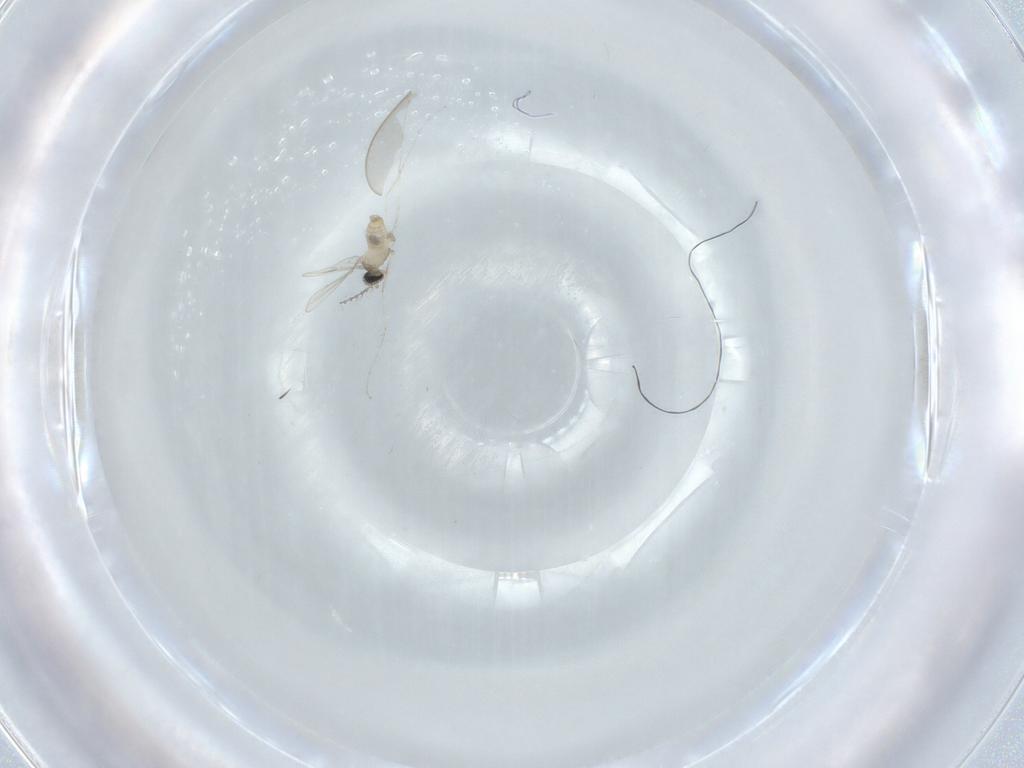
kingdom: Animalia
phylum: Arthropoda
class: Insecta
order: Diptera
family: Cecidomyiidae
